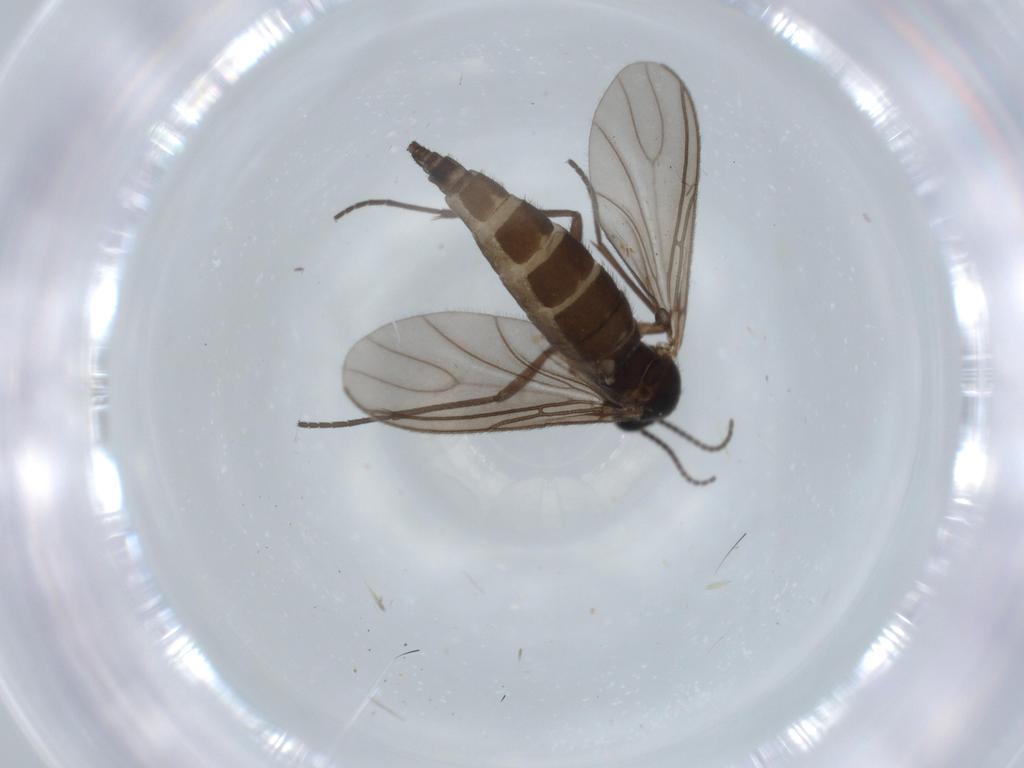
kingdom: Animalia
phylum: Arthropoda
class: Insecta
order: Diptera
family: Sciaridae
